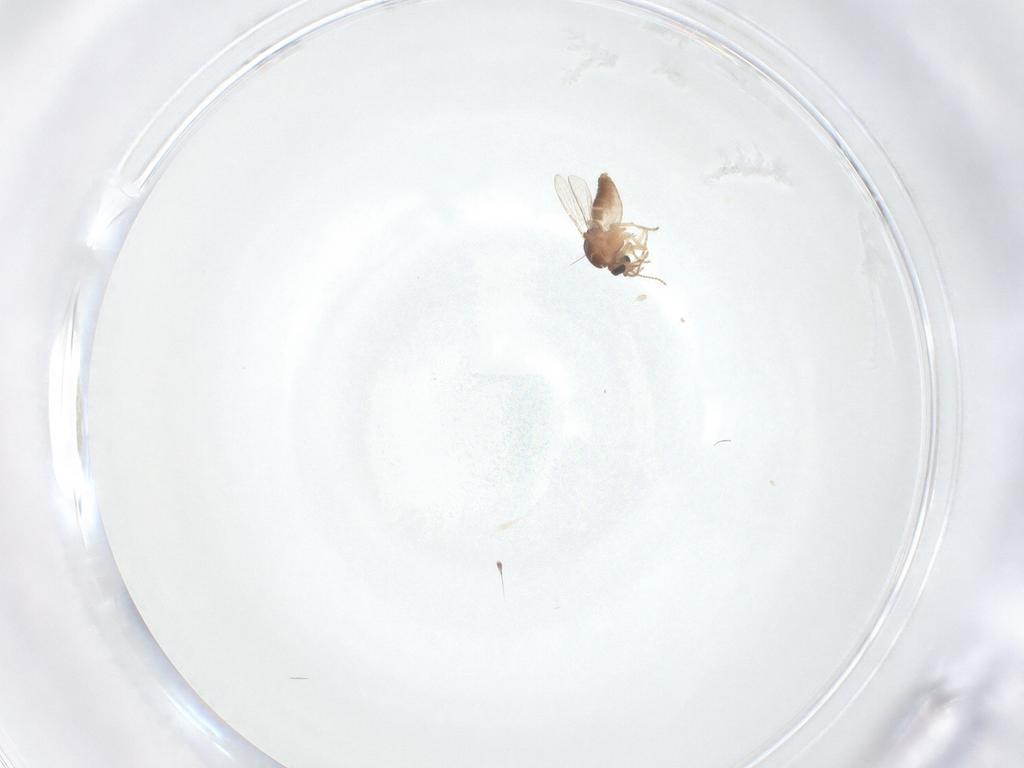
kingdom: Animalia
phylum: Arthropoda
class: Insecta
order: Diptera
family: Ceratopogonidae
